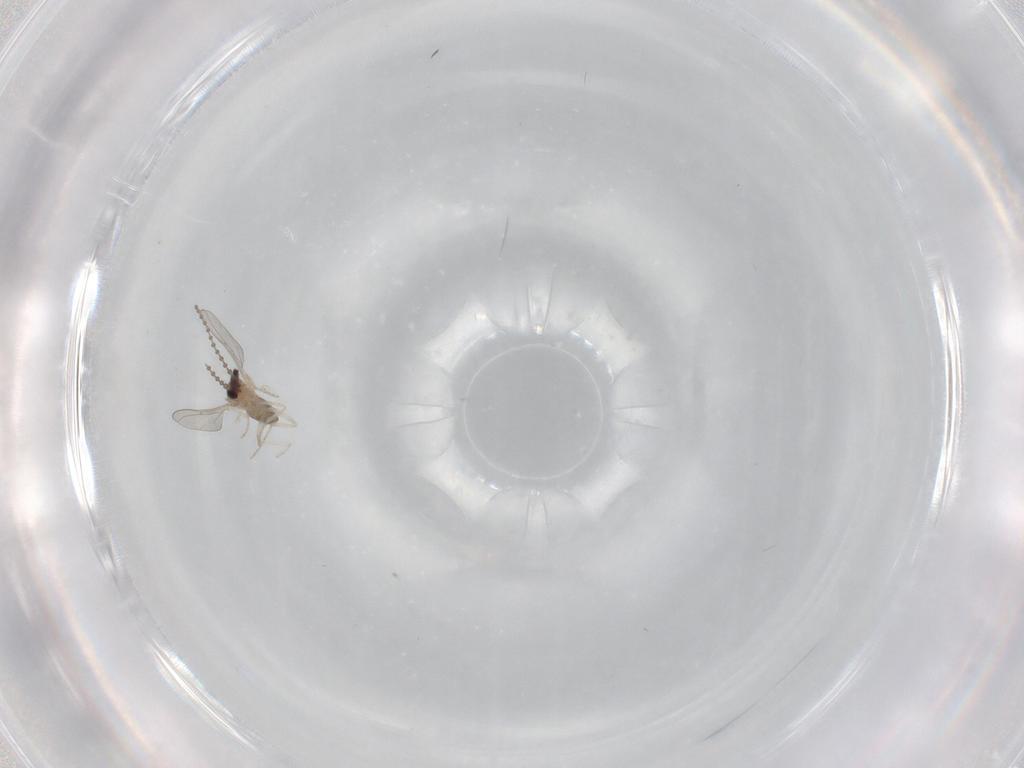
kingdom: Animalia
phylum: Arthropoda
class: Insecta
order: Diptera
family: Cecidomyiidae
